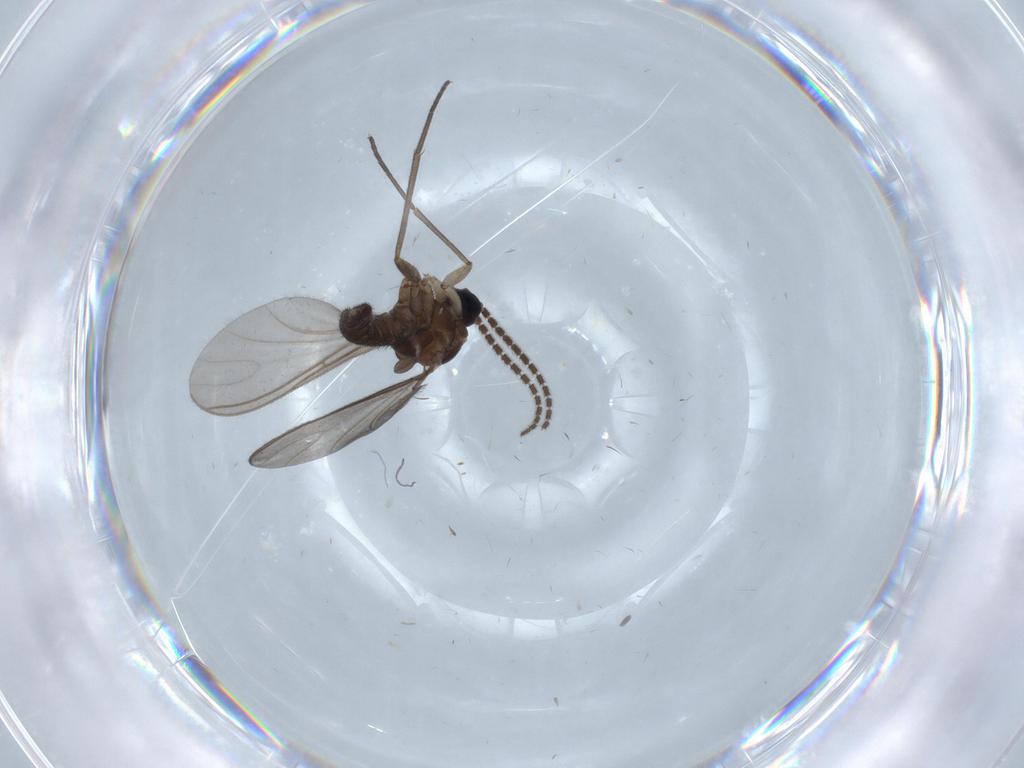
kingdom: Animalia
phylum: Arthropoda
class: Insecta
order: Diptera
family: Sciaridae
